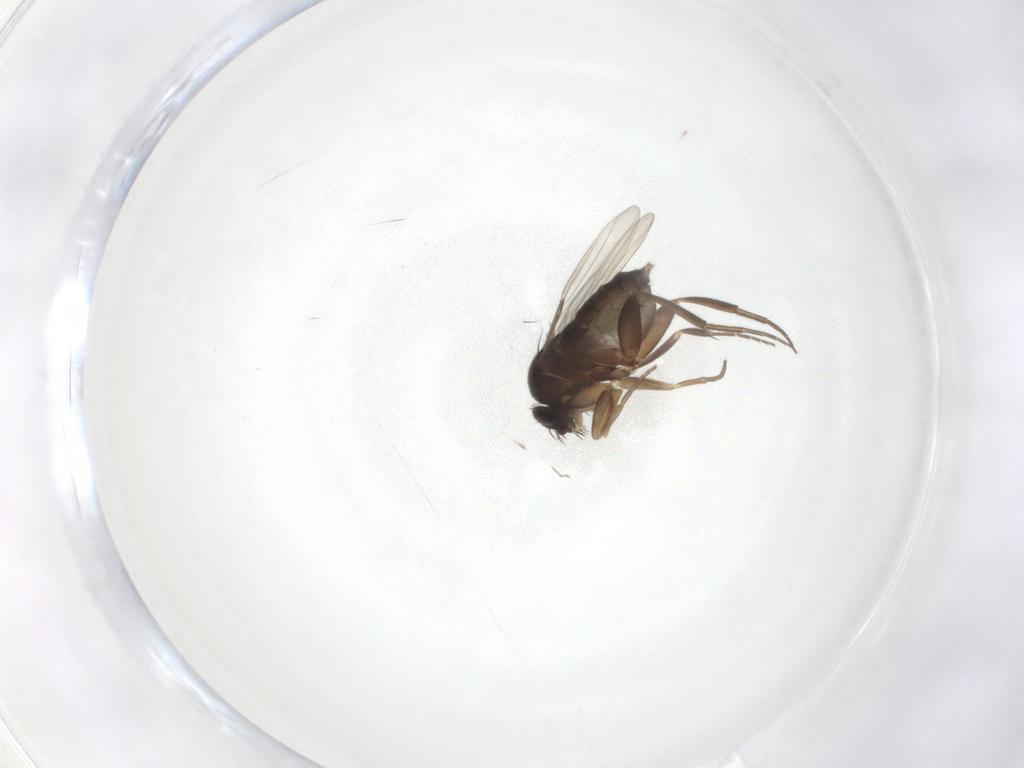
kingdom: Animalia
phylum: Arthropoda
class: Insecta
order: Diptera
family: Phoridae
